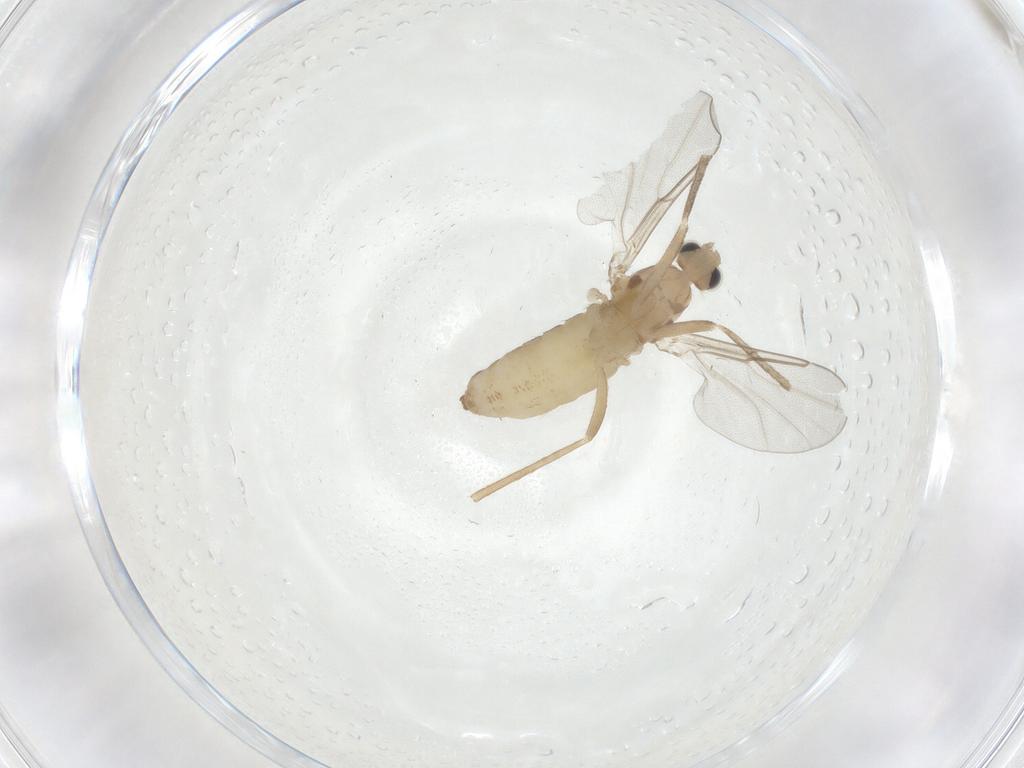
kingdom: Animalia
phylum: Arthropoda
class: Insecta
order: Diptera
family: Cecidomyiidae
